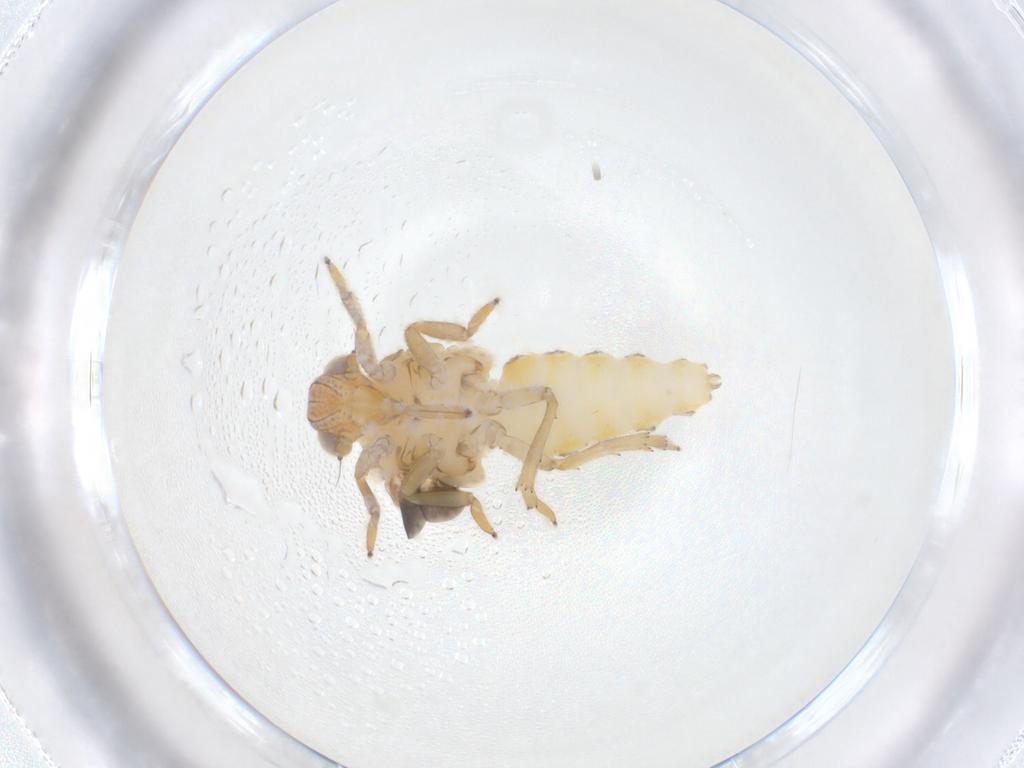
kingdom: Animalia
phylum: Arthropoda
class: Insecta
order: Hemiptera
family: Issidae
